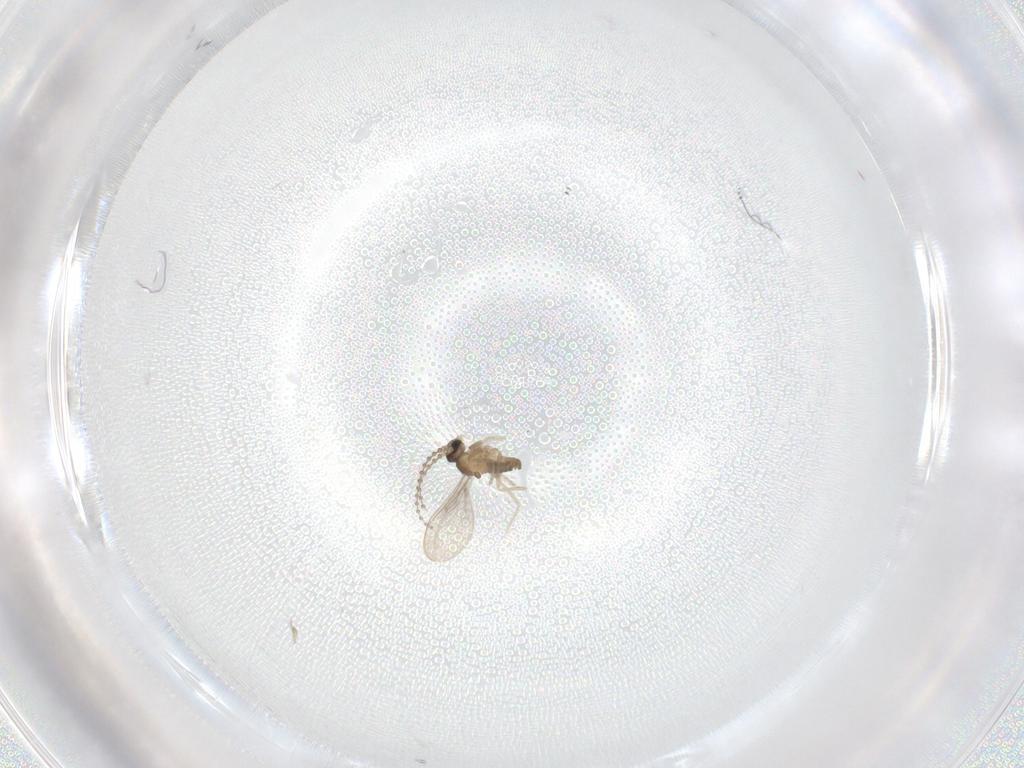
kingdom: Animalia
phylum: Arthropoda
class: Insecta
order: Diptera
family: Cecidomyiidae
